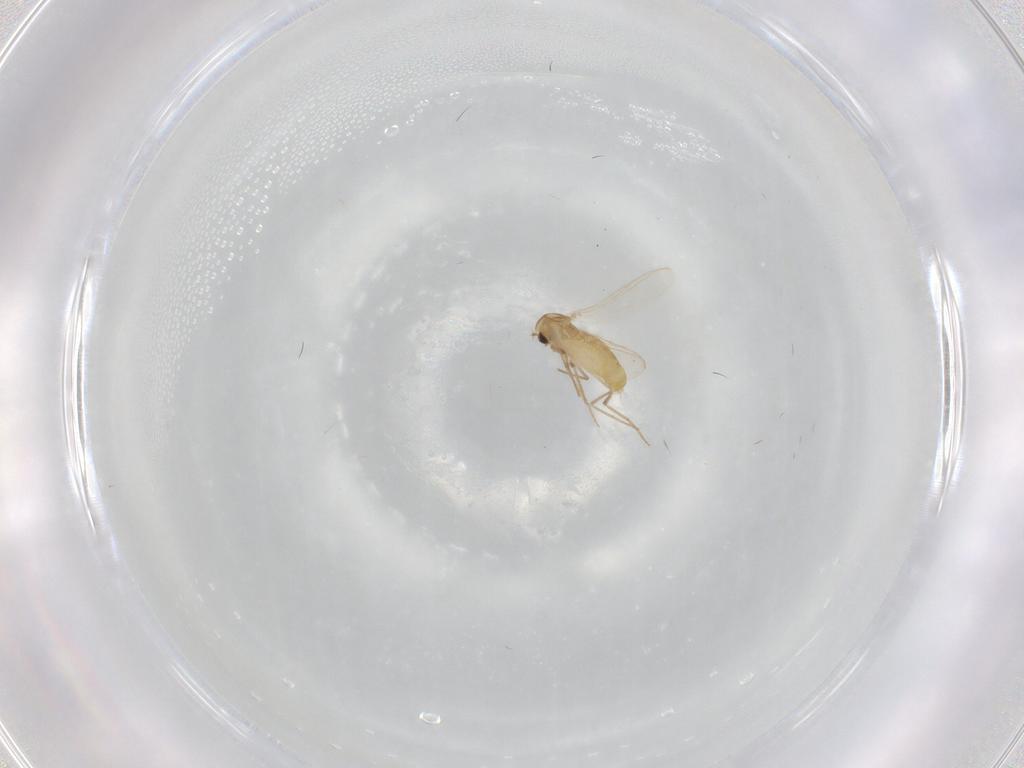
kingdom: Animalia
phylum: Arthropoda
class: Insecta
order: Diptera
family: Chironomidae
